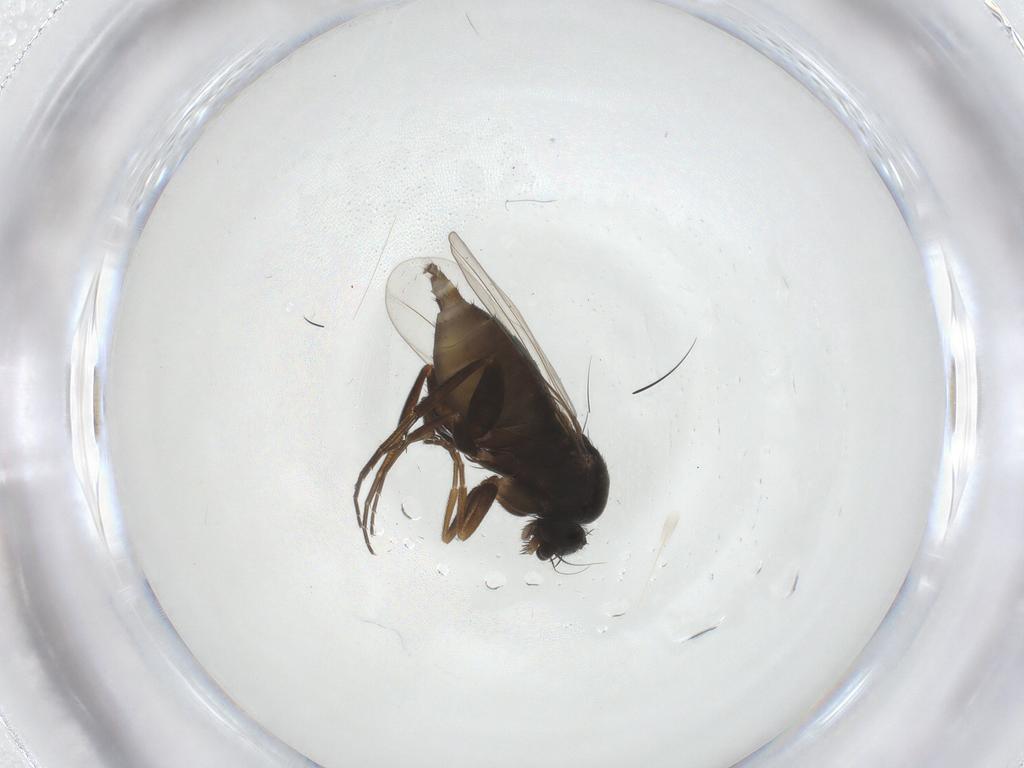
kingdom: Animalia
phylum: Arthropoda
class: Insecta
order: Diptera
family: Phoridae
